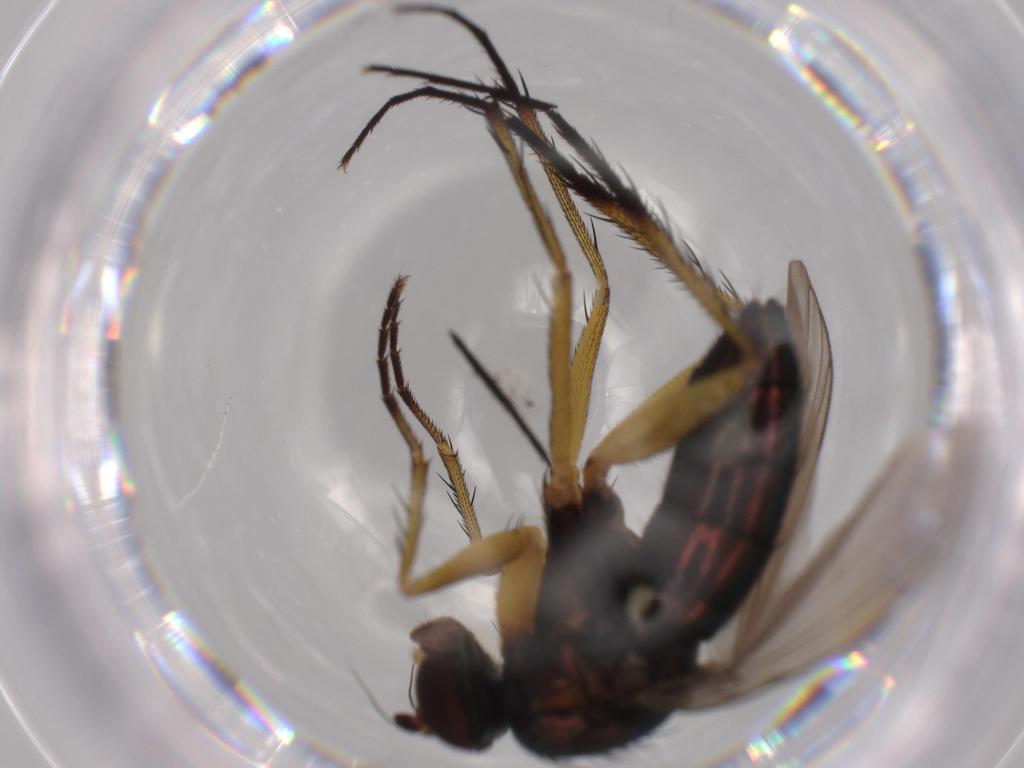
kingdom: Animalia
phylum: Arthropoda
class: Insecta
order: Diptera
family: Dolichopodidae
